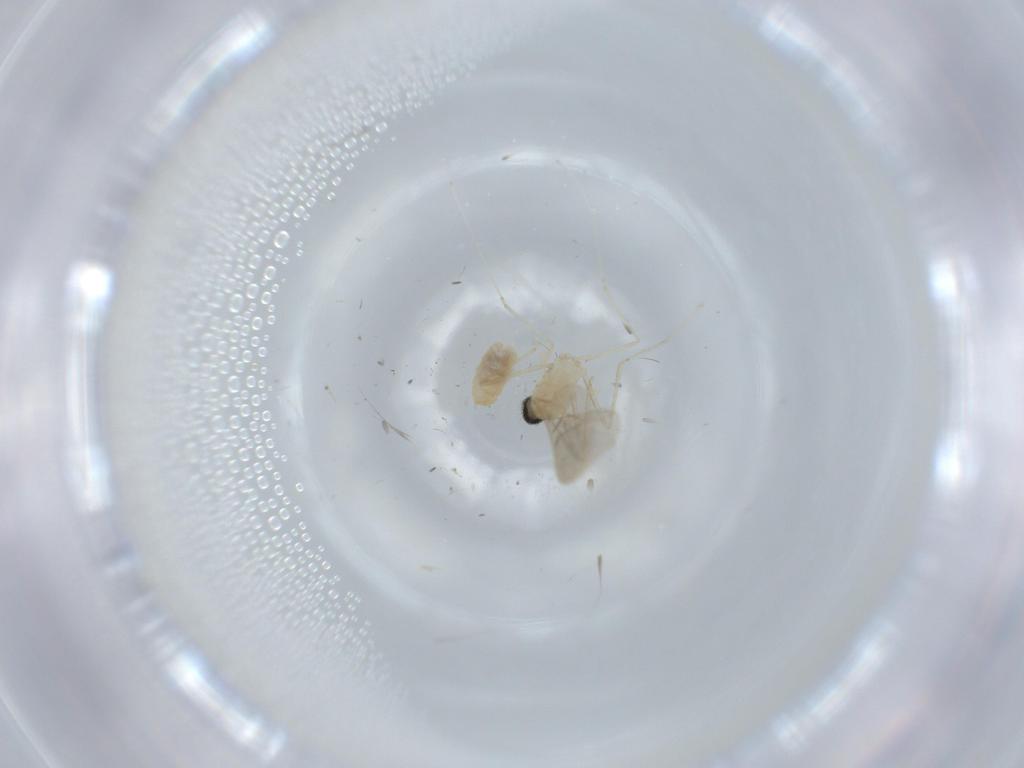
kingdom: Animalia
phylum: Arthropoda
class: Insecta
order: Diptera
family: Cecidomyiidae
